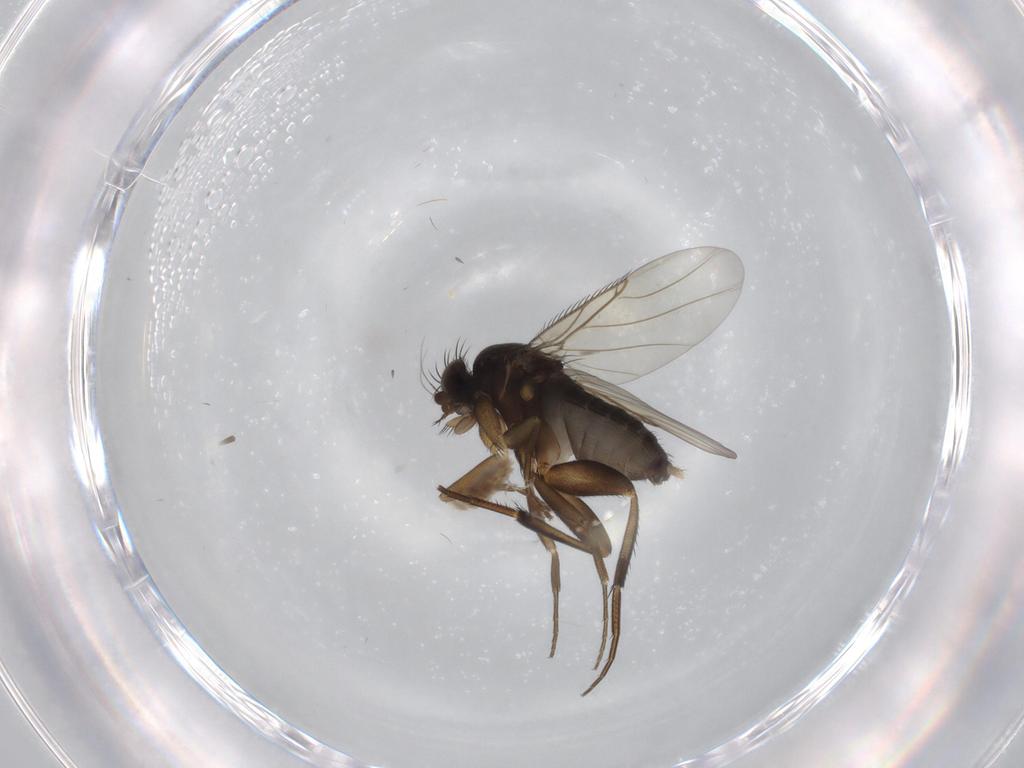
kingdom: Animalia
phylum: Arthropoda
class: Insecta
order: Diptera
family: Phoridae
